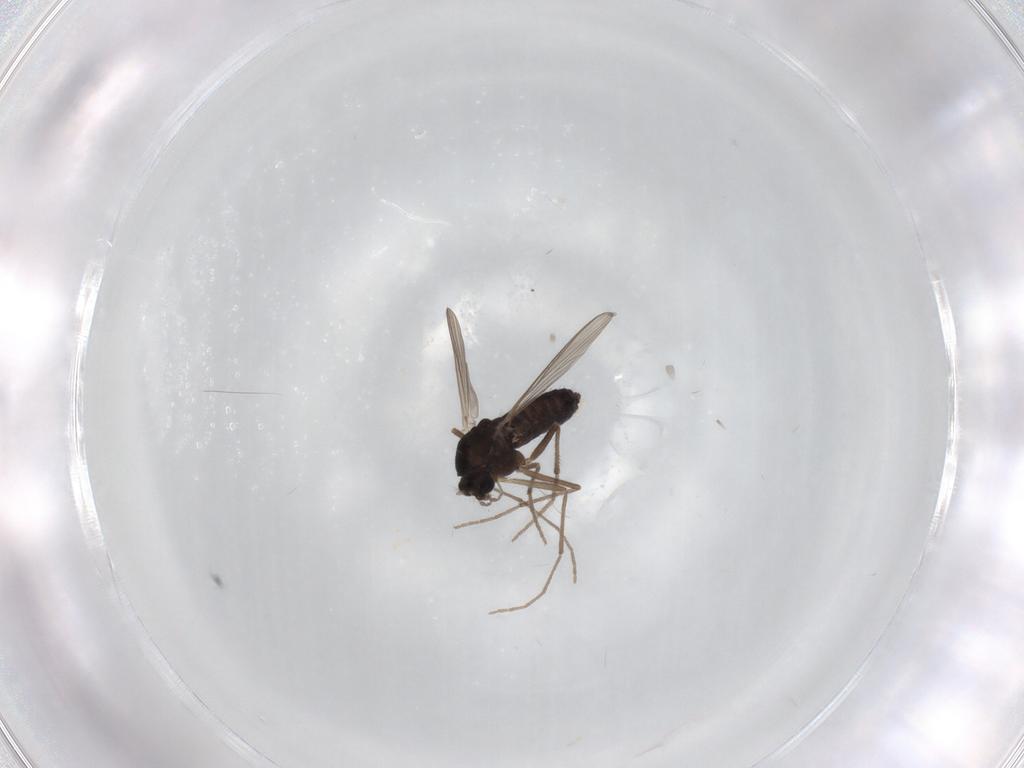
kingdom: Animalia
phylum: Arthropoda
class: Insecta
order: Diptera
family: Chironomidae
